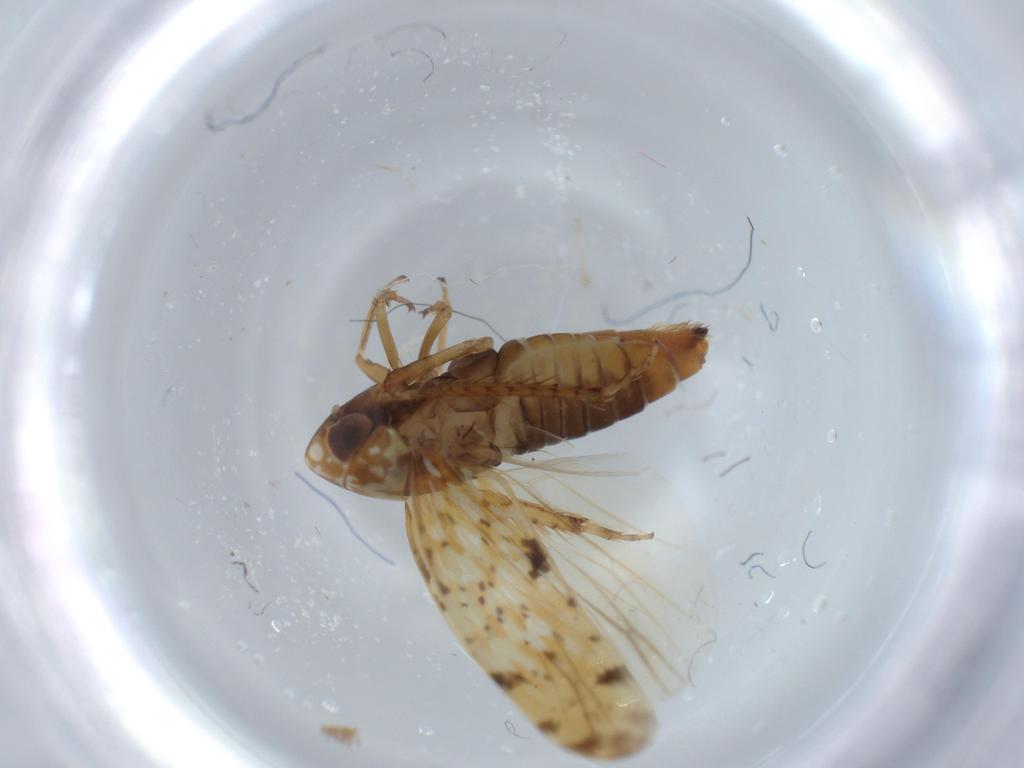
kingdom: Animalia
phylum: Arthropoda
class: Insecta
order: Hemiptera
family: Cicadellidae
